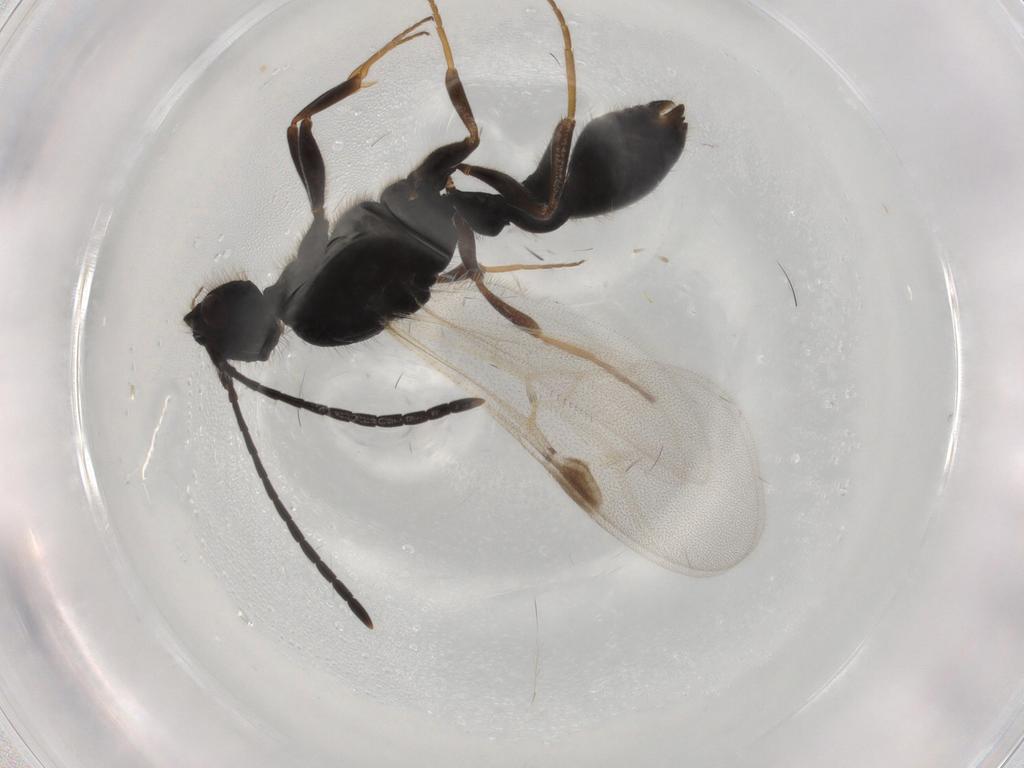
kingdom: Animalia
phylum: Arthropoda
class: Insecta
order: Hymenoptera
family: Formicidae
